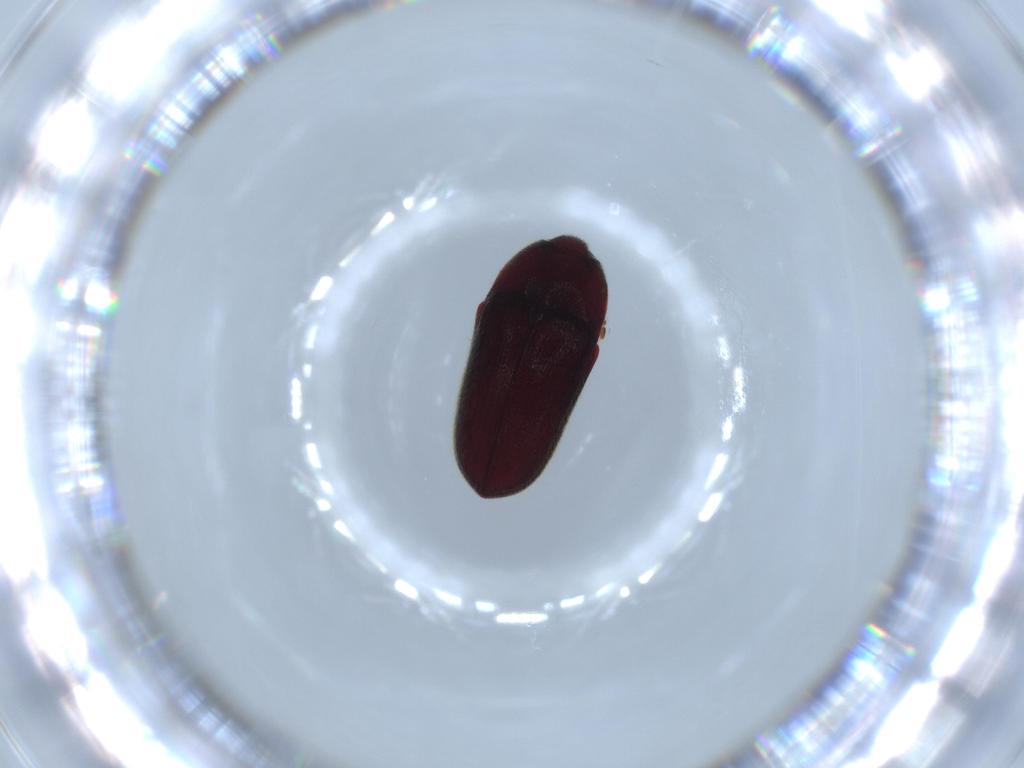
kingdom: Animalia
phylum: Arthropoda
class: Insecta
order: Coleoptera
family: Throscidae
